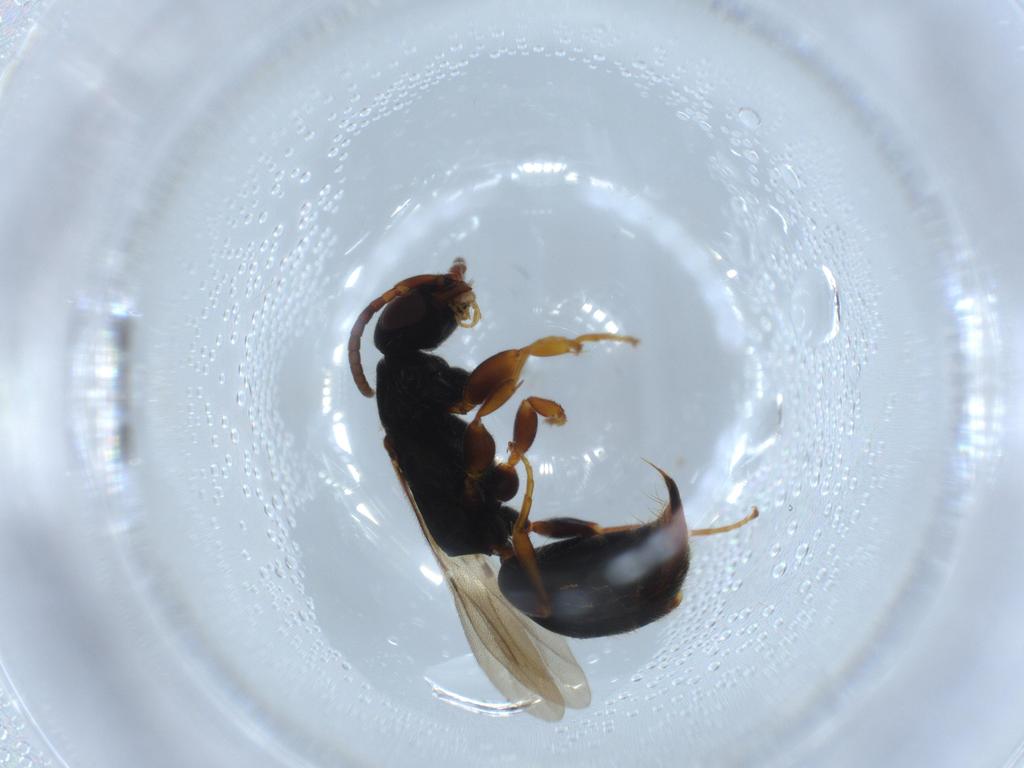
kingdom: Animalia
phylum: Arthropoda
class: Insecta
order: Hymenoptera
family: Bethylidae
